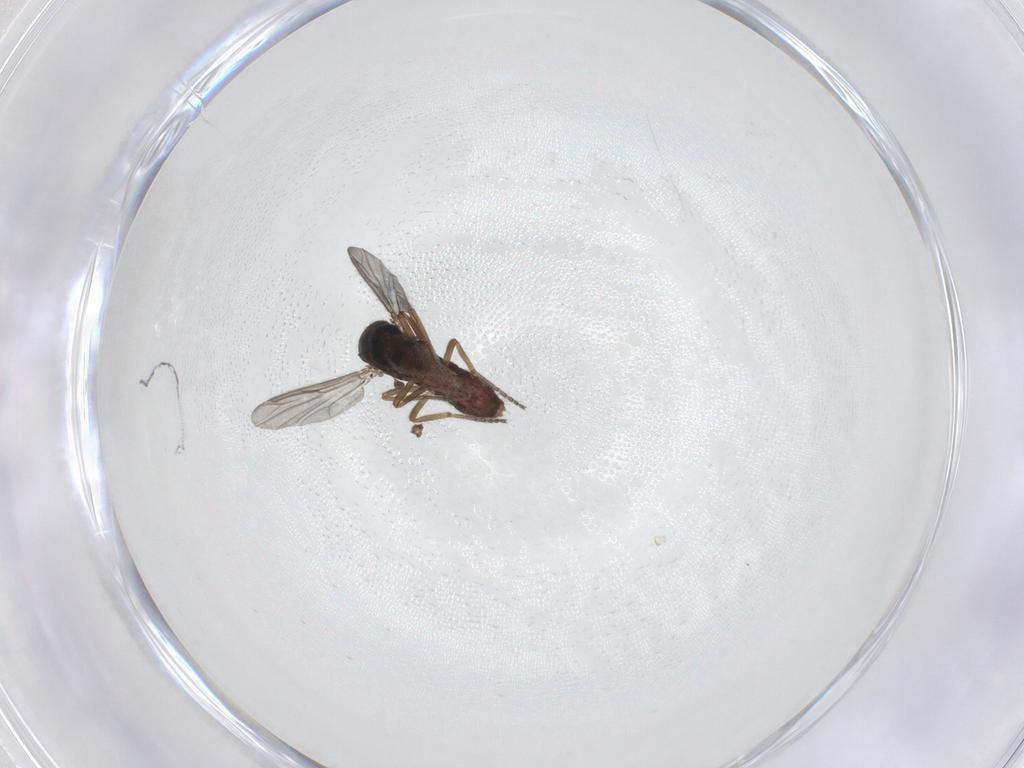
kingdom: Animalia
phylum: Arthropoda
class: Insecta
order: Diptera
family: Ceratopogonidae
